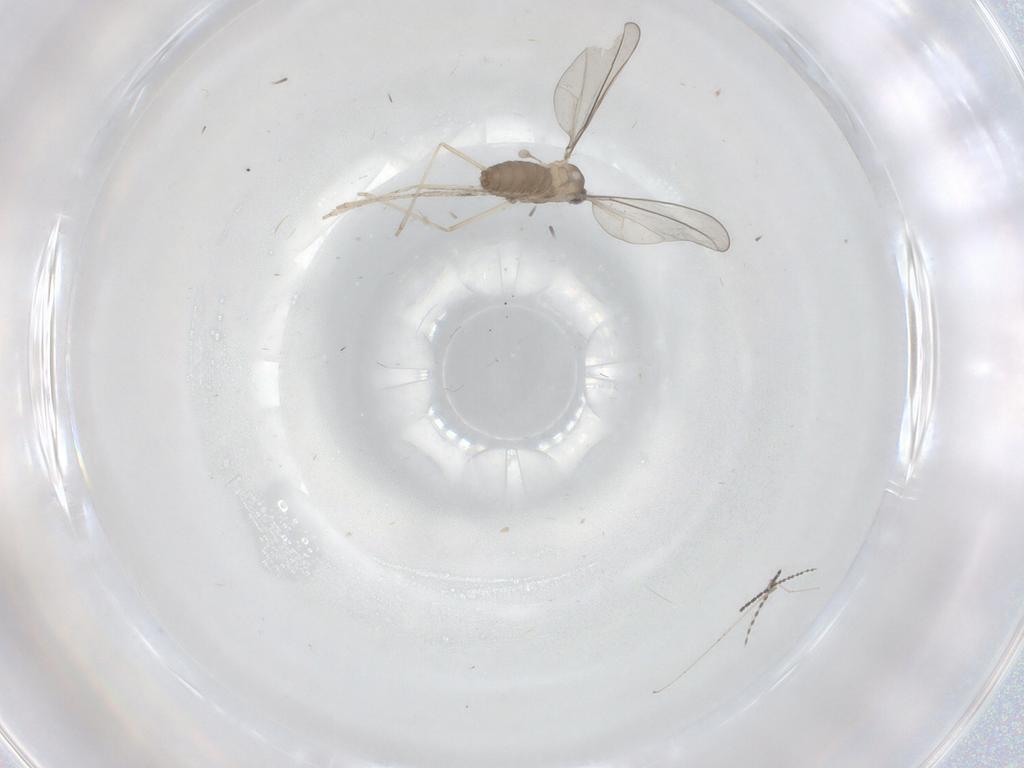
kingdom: Animalia
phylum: Arthropoda
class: Insecta
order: Diptera
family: Cecidomyiidae
